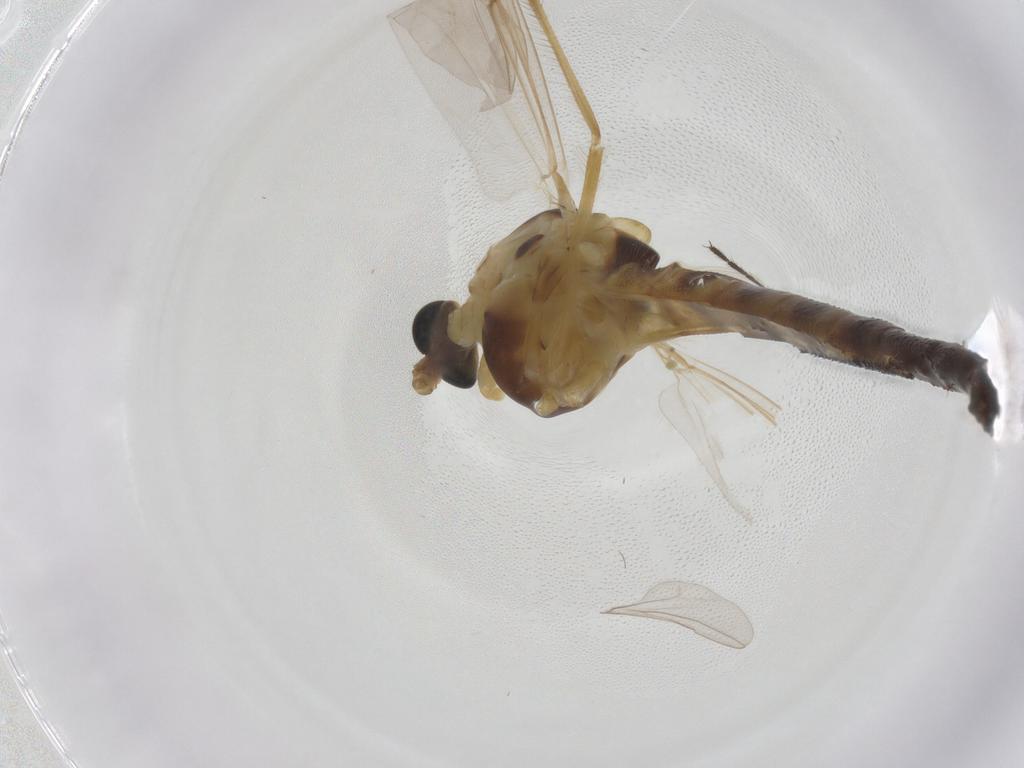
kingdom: Animalia
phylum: Arthropoda
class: Insecta
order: Diptera
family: Chironomidae
